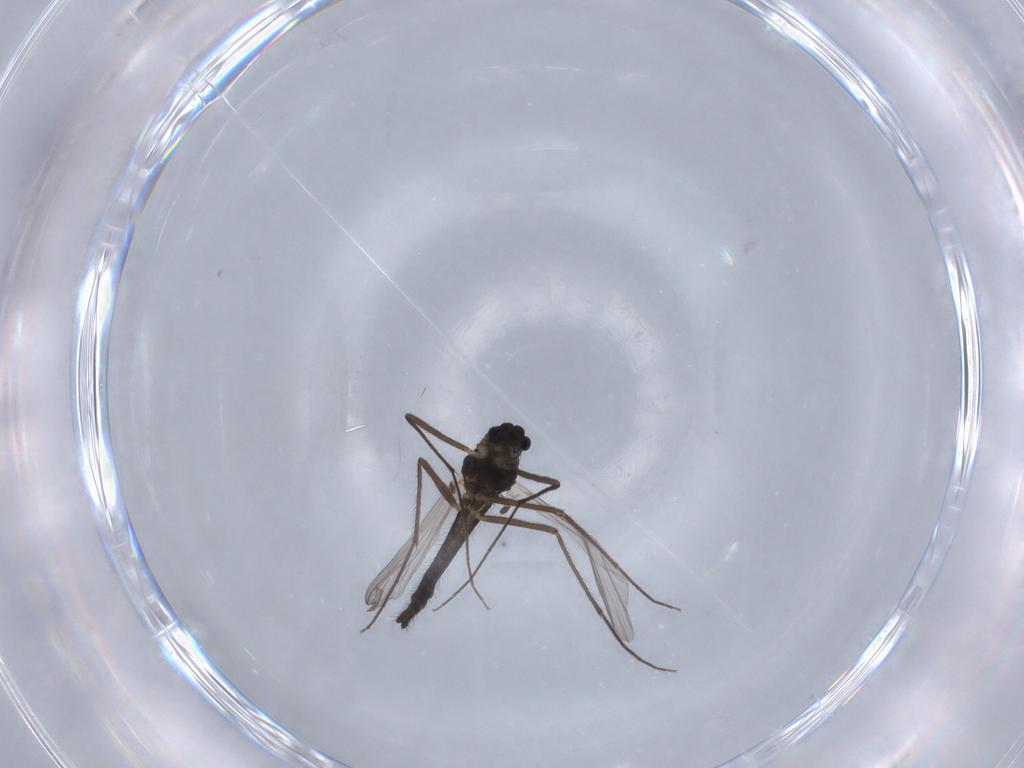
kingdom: Animalia
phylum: Arthropoda
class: Insecta
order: Diptera
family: Chironomidae
